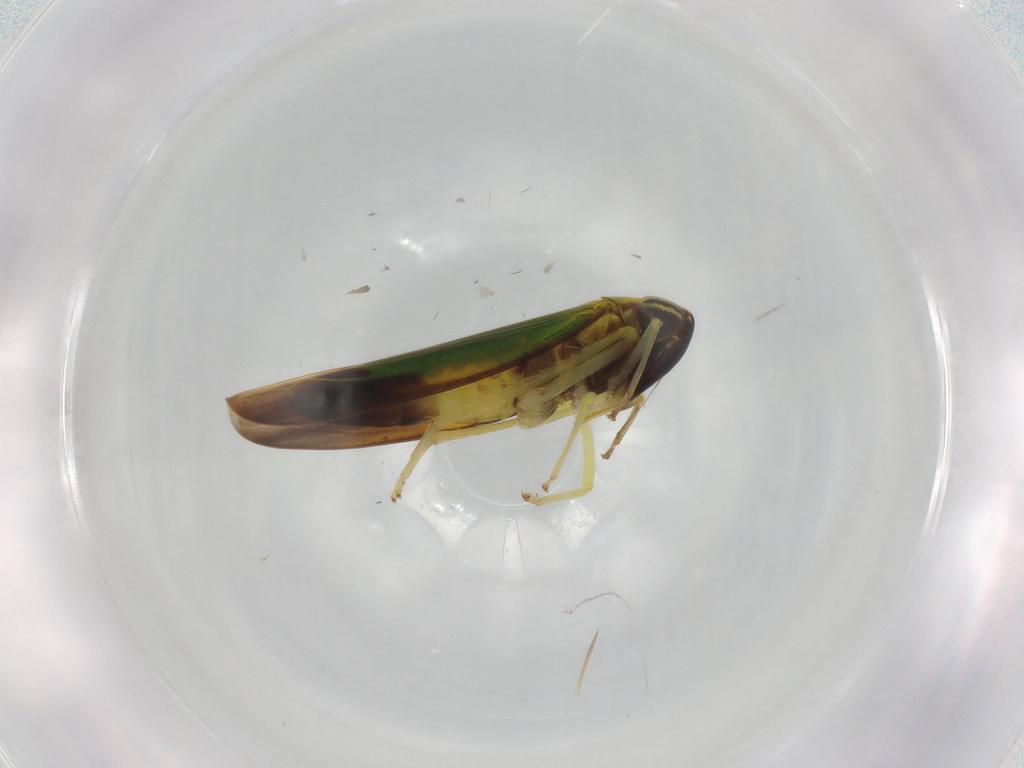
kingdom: Animalia
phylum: Arthropoda
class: Insecta
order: Hemiptera
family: Cicadellidae
